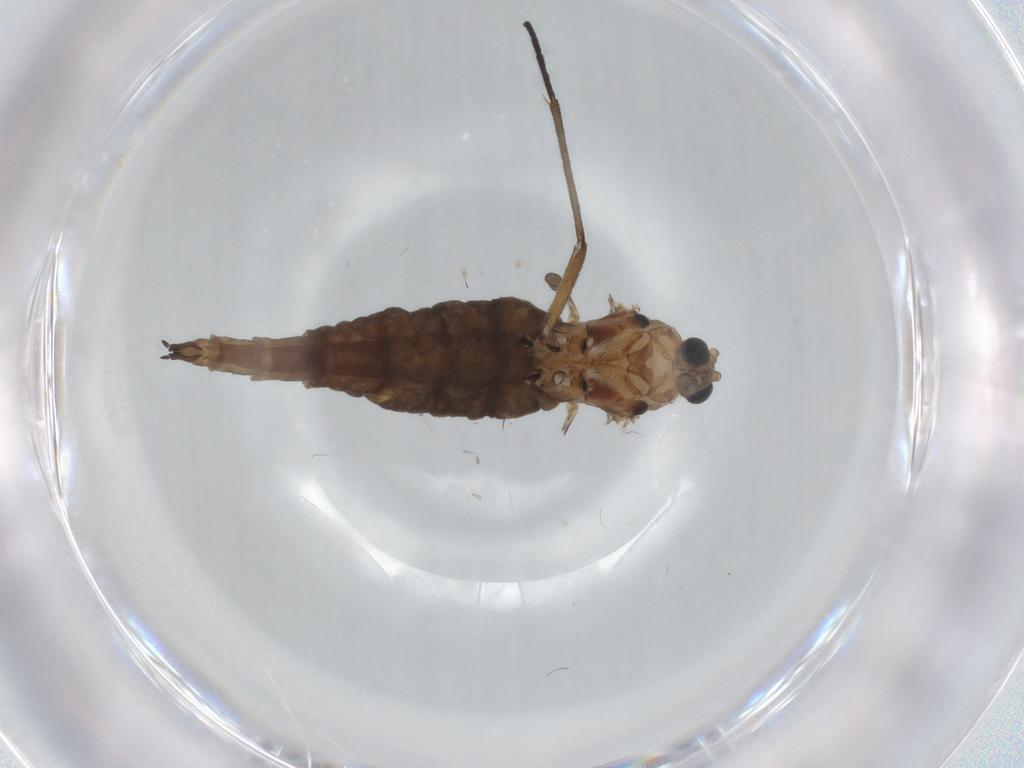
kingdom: Animalia
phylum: Arthropoda
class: Insecta
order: Diptera
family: Sciaridae
